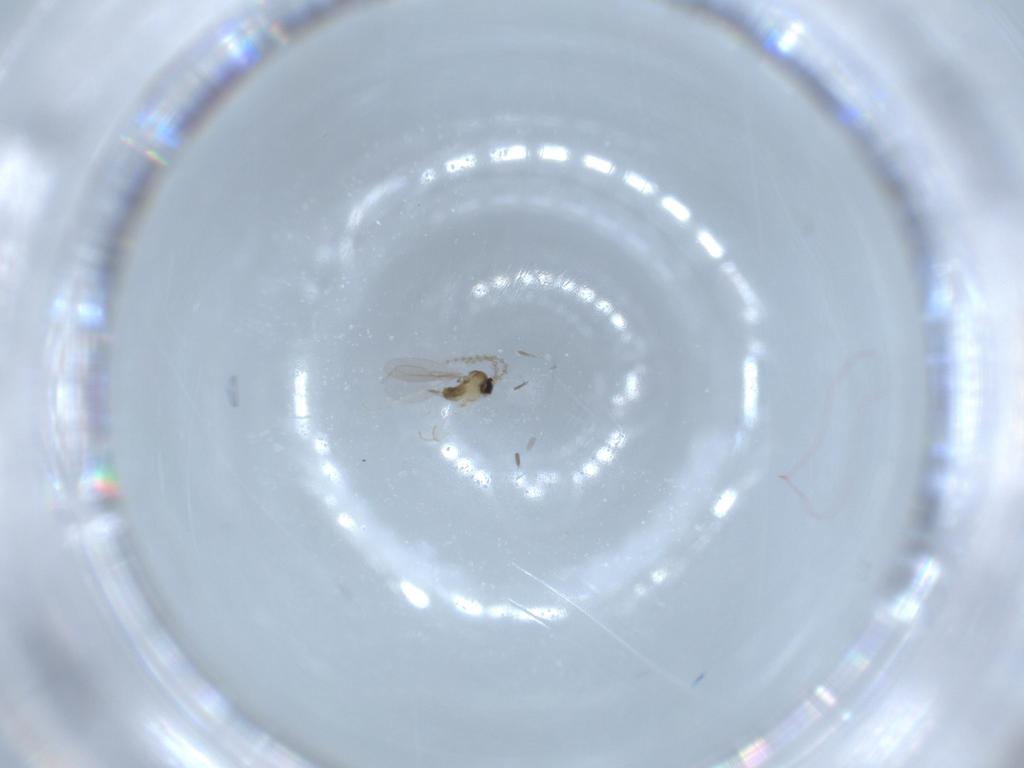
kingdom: Animalia
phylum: Arthropoda
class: Insecta
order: Diptera
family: Cecidomyiidae
